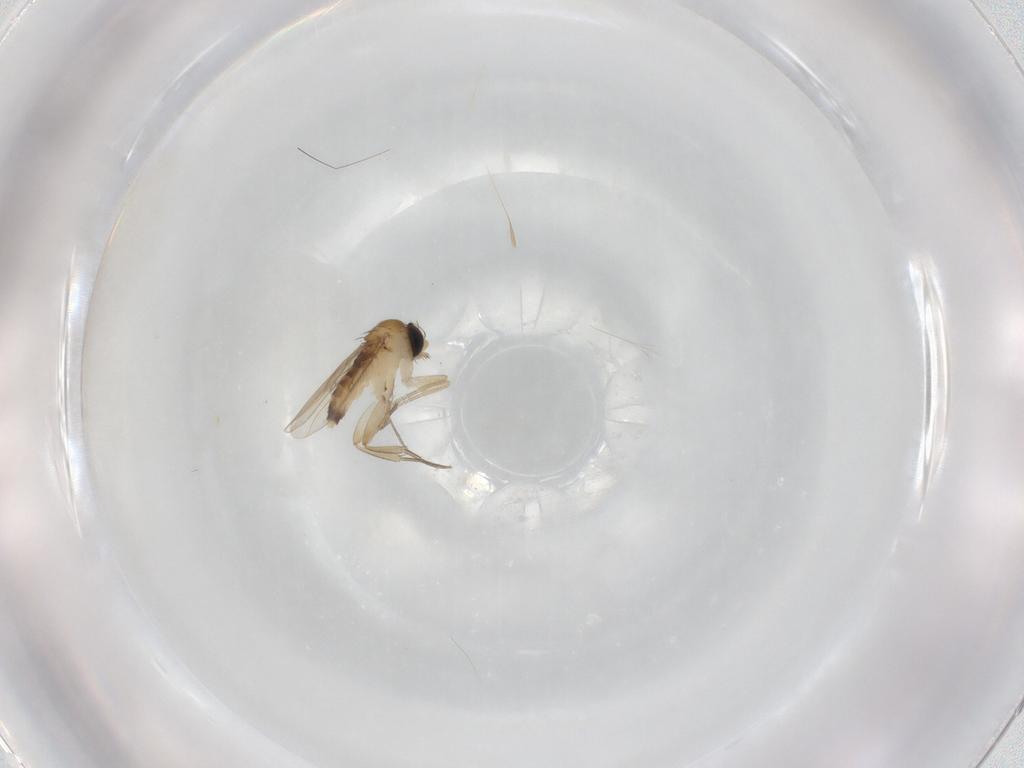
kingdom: Animalia
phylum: Arthropoda
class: Insecta
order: Diptera
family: Phoridae
